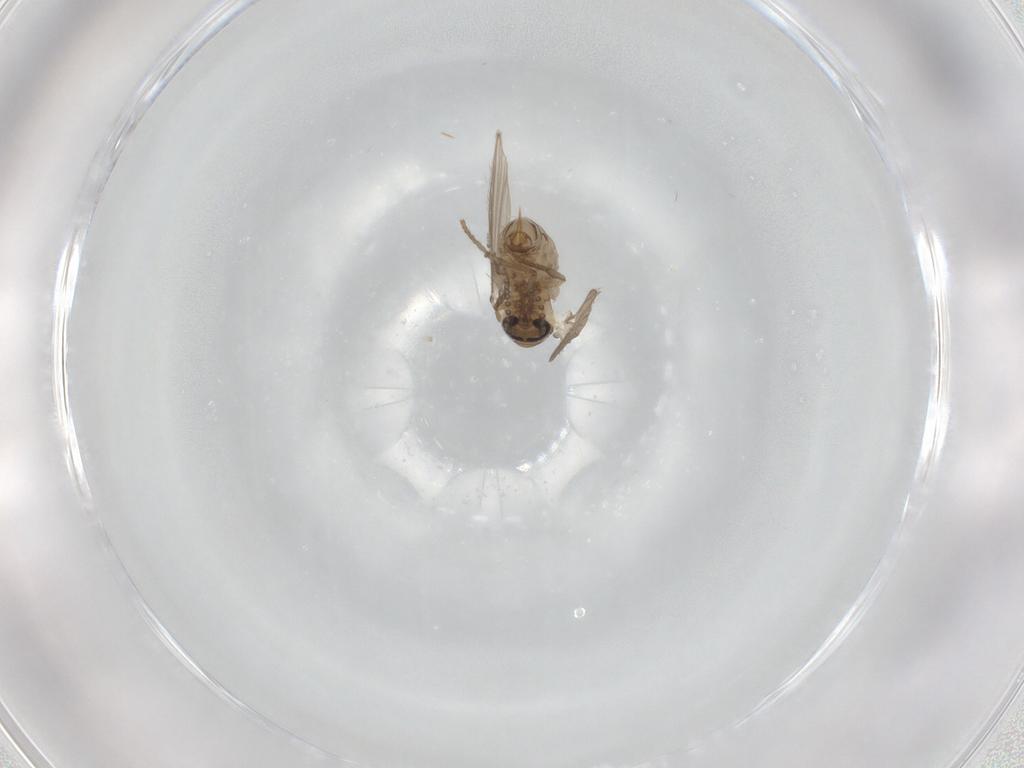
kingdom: Animalia
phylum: Arthropoda
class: Insecta
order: Diptera
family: Psychodidae
